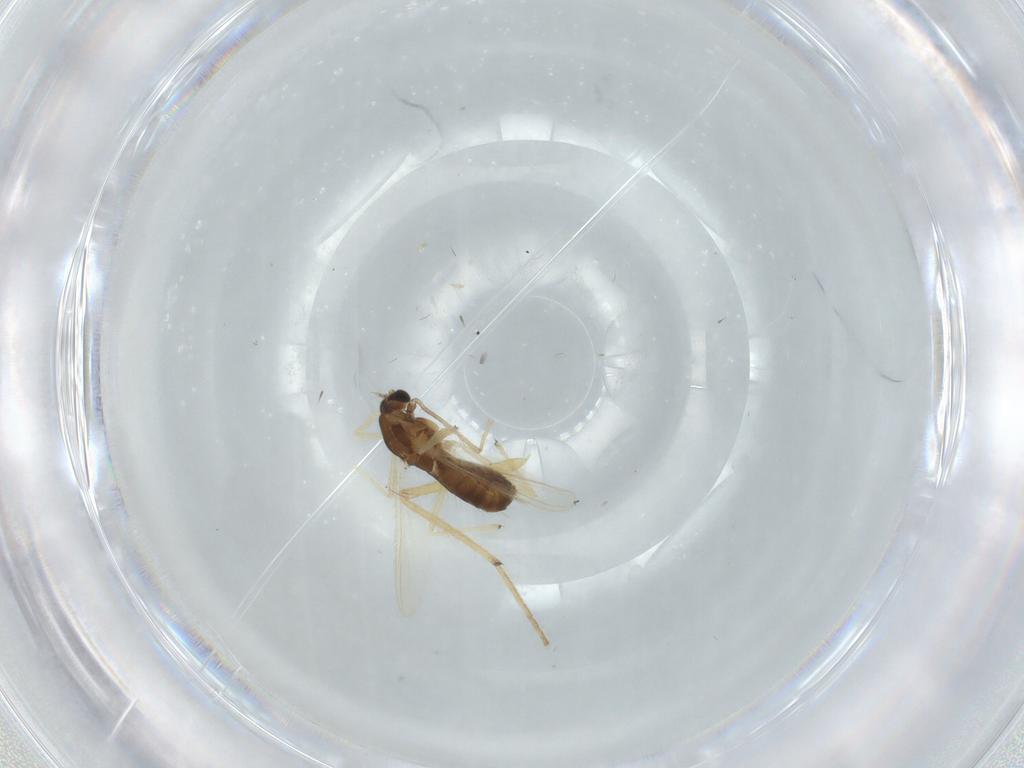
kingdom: Animalia
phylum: Arthropoda
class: Insecta
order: Diptera
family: Chironomidae
